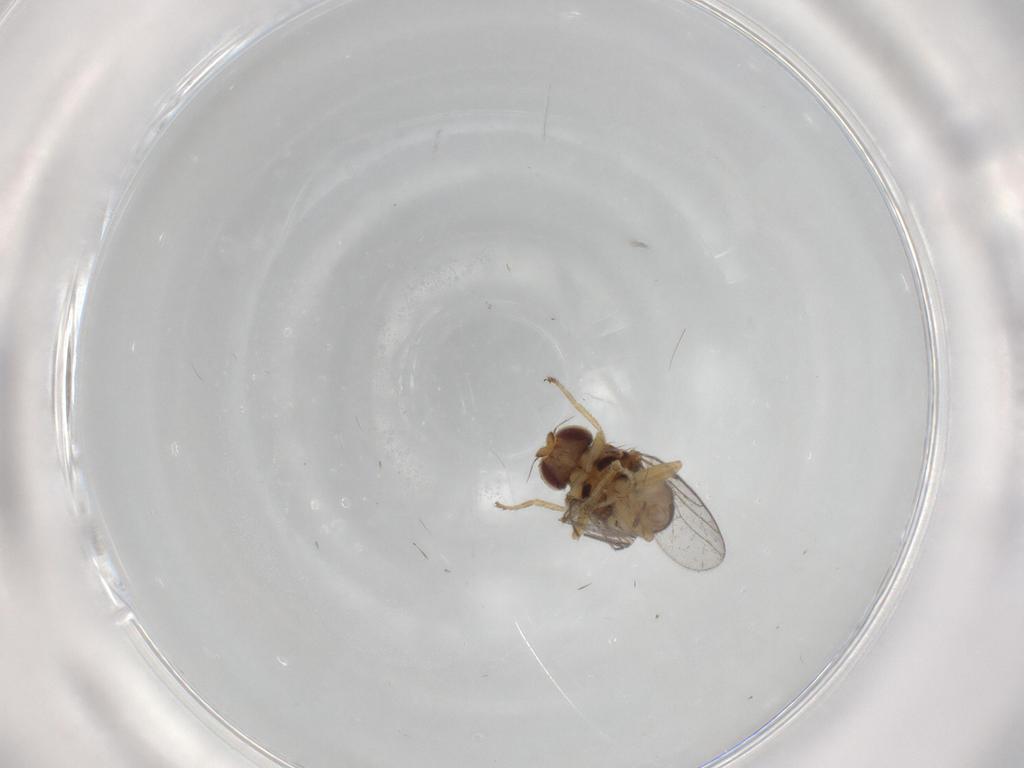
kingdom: Animalia
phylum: Arthropoda
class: Insecta
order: Diptera
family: Chloropidae
